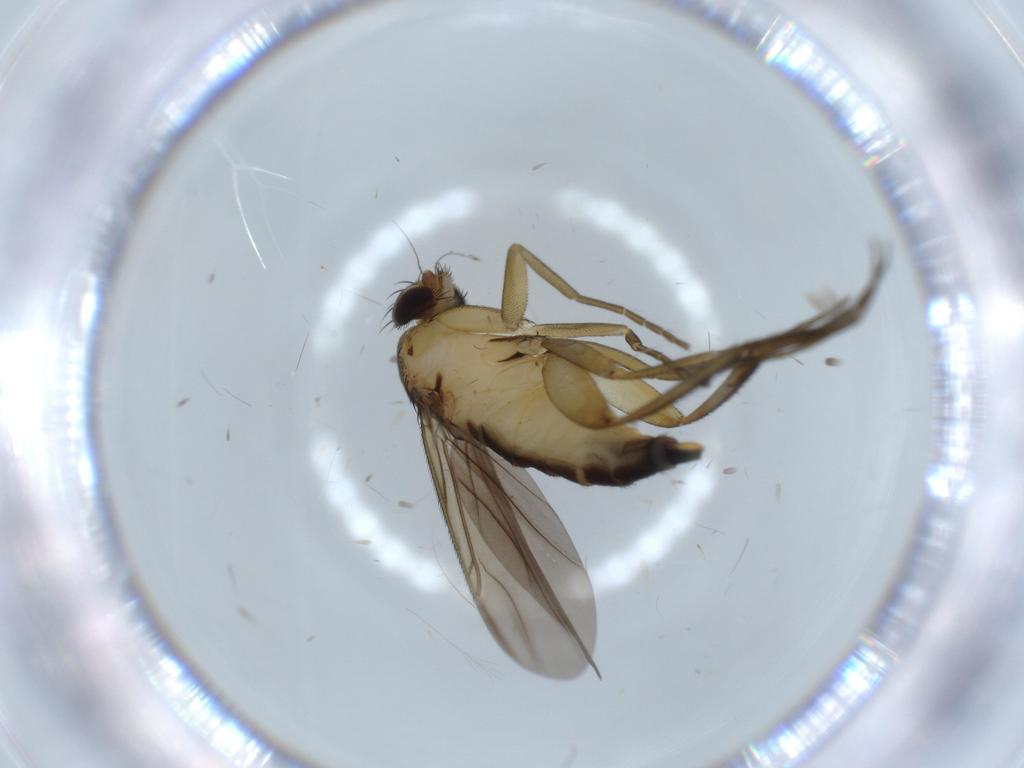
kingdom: Animalia
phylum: Arthropoda
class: Insecta
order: Diptera
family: Phoridae
